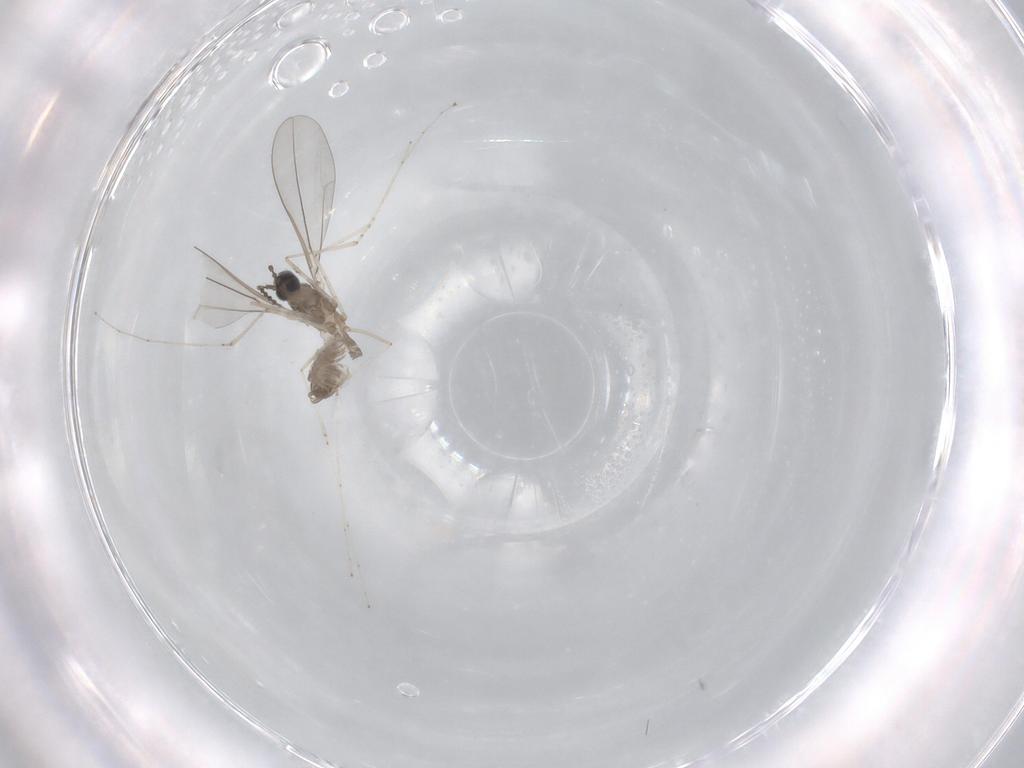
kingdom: Animalia
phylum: Arthropoda
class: Insecta
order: Diptera
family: Cecidomyiidae
